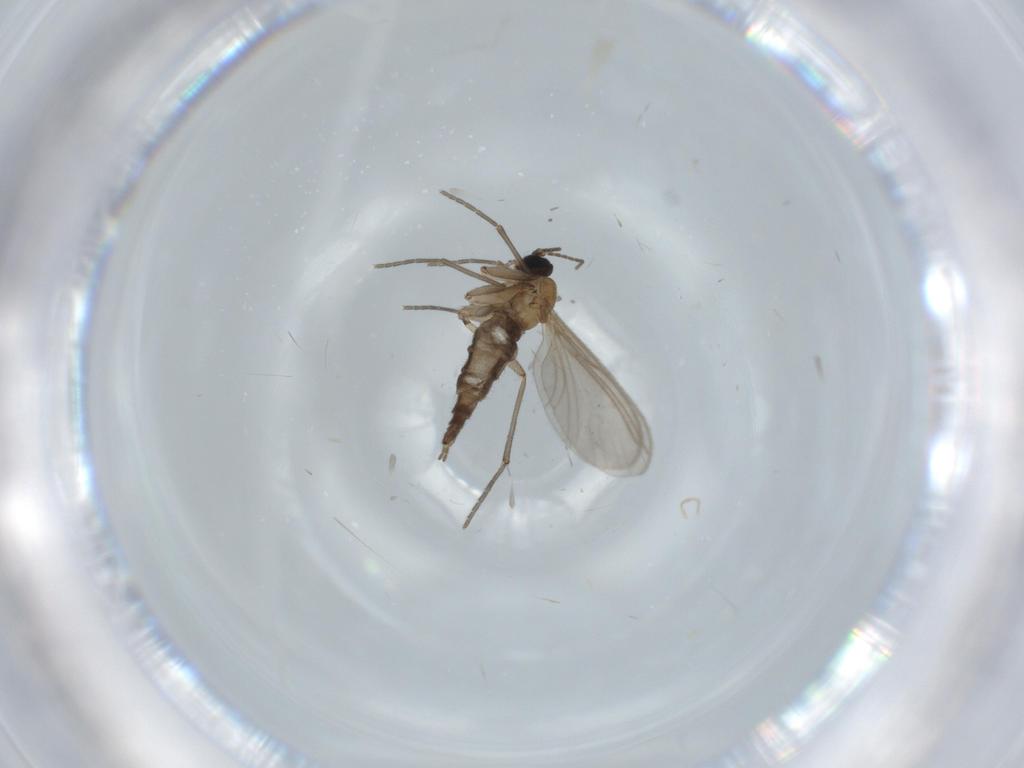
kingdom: Animalia
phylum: Arthropoda
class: Insecta
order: Diptera
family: Sciaridae
